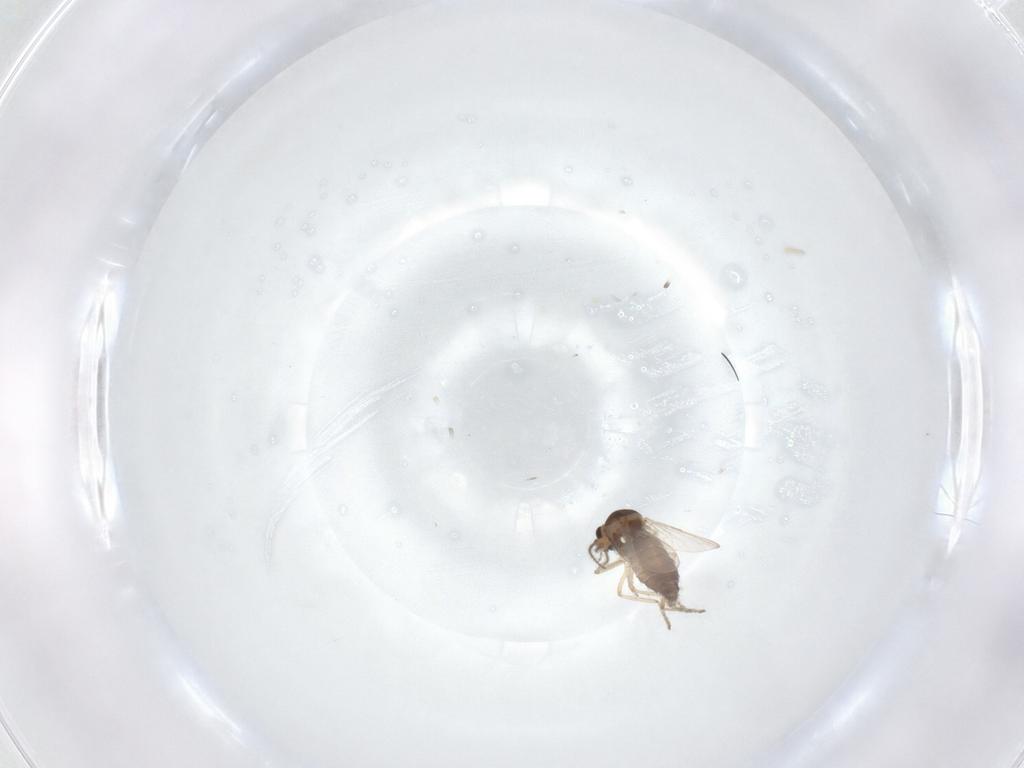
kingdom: Animalia
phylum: Arthropoda
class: Insecta
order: Diptera
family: Ceratopogonidae
